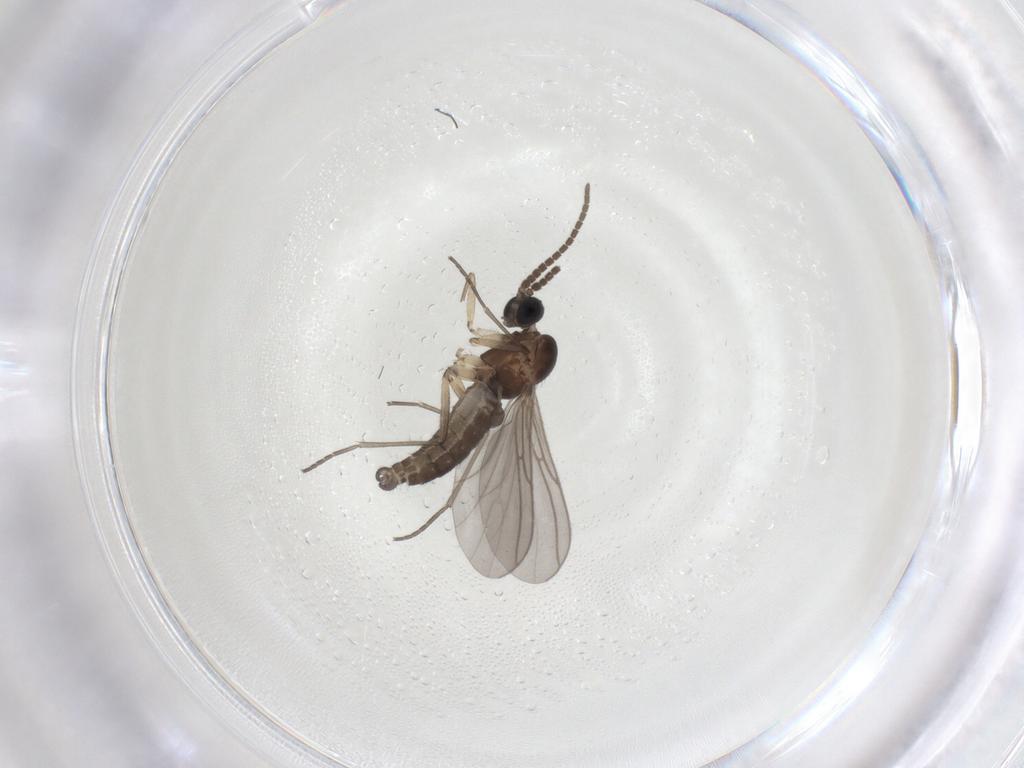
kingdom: Animalia
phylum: Arthropoda
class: Insecta
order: Diptera
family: Sciaridae
